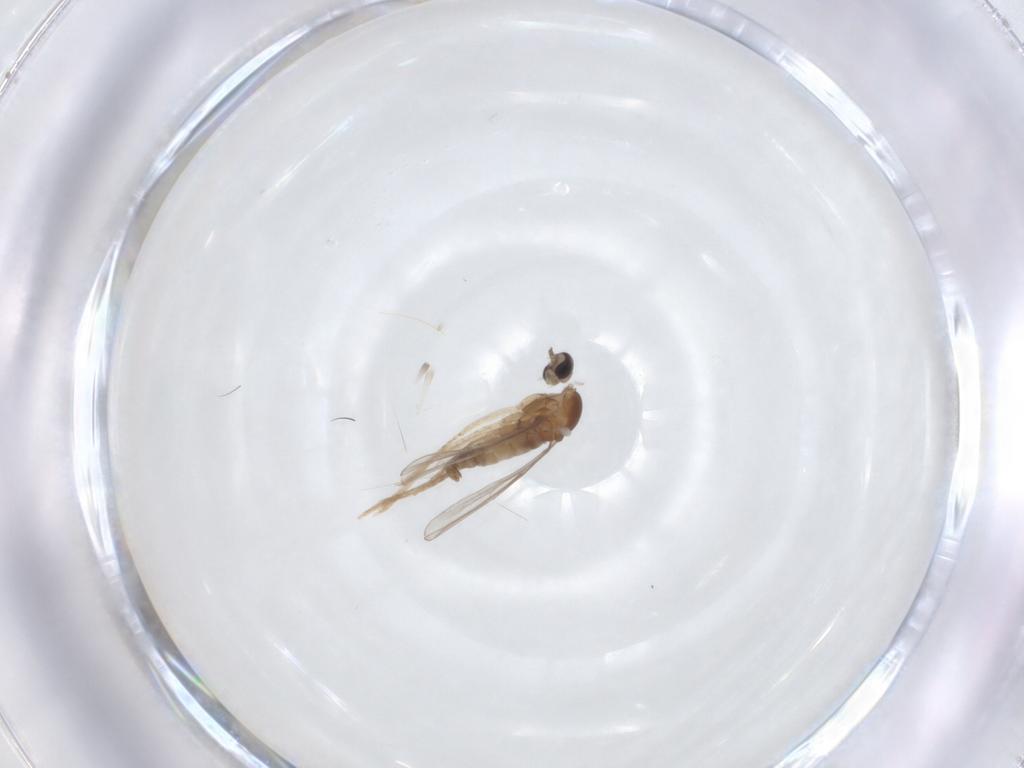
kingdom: Animalia
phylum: Arthropoda
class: Insecta
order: Diptera
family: Cecidomyiidae
